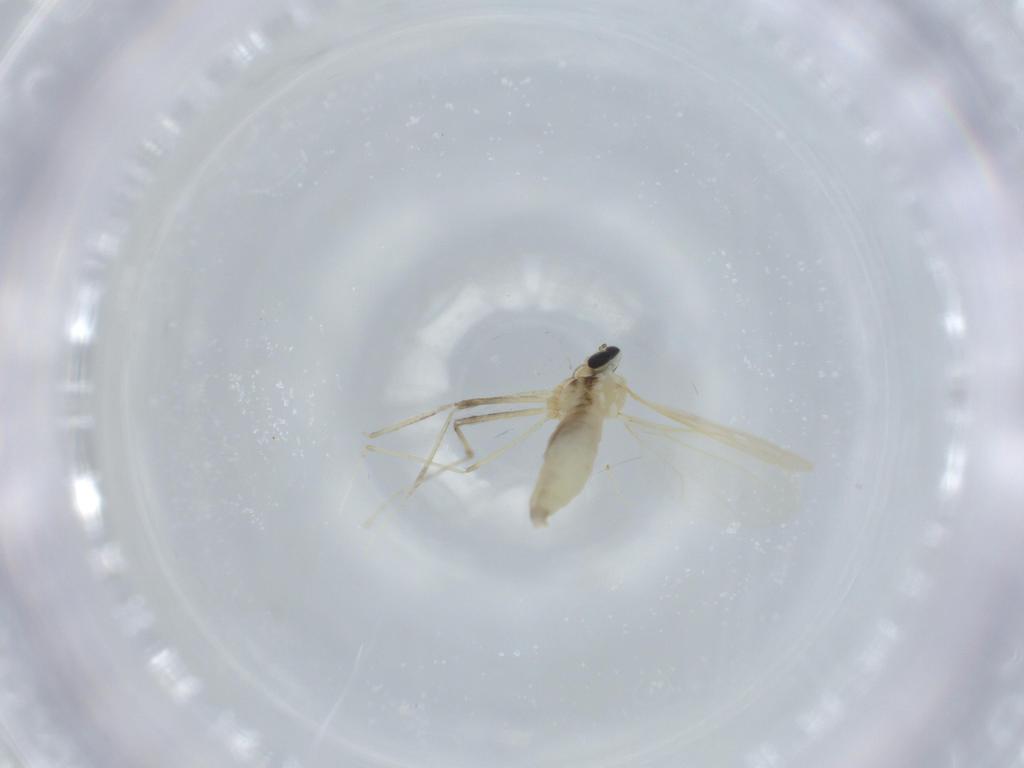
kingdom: Animalia
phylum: Arthropoda
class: Insecta
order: Diptera
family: Cecidomyiidae
